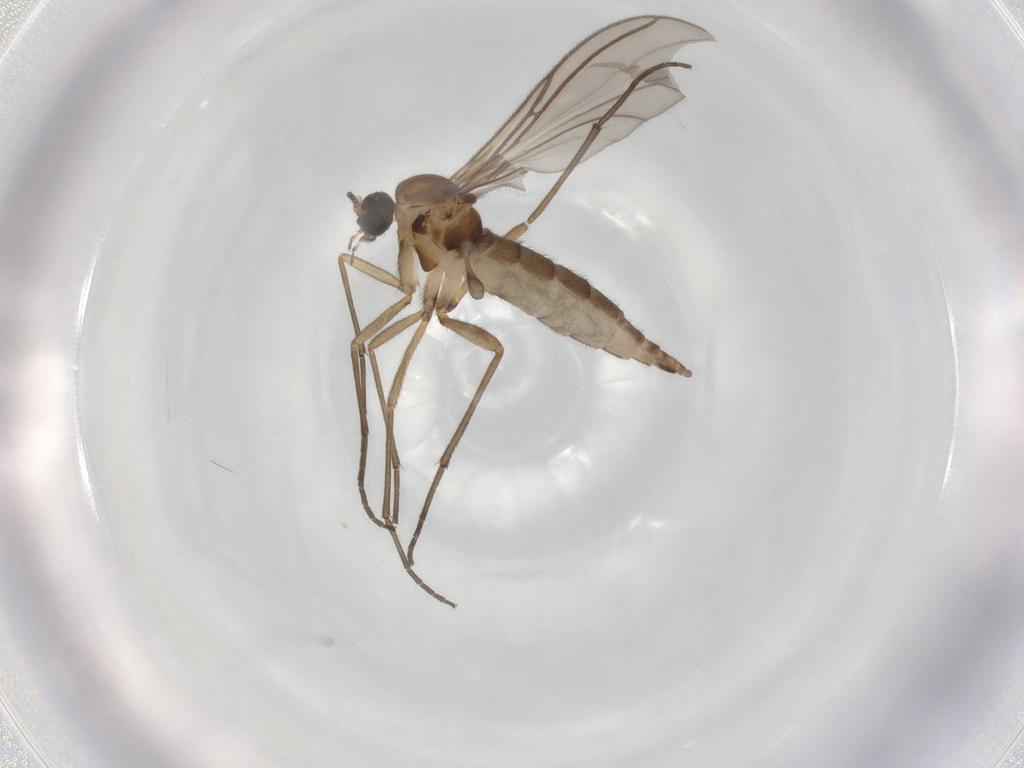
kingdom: Animalia
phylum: Arthropoda
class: Insecta
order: Diptera
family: Sciaridae
